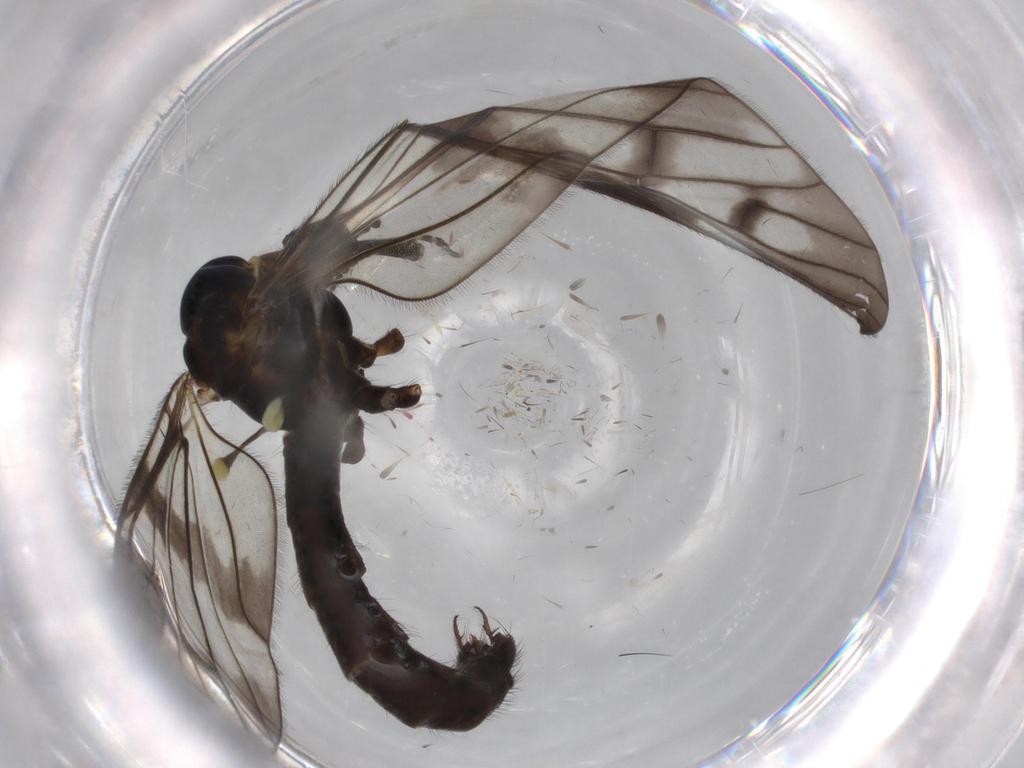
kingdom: Animalia
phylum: Arthropoda
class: Insecta
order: Diptera
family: Limoniidae
